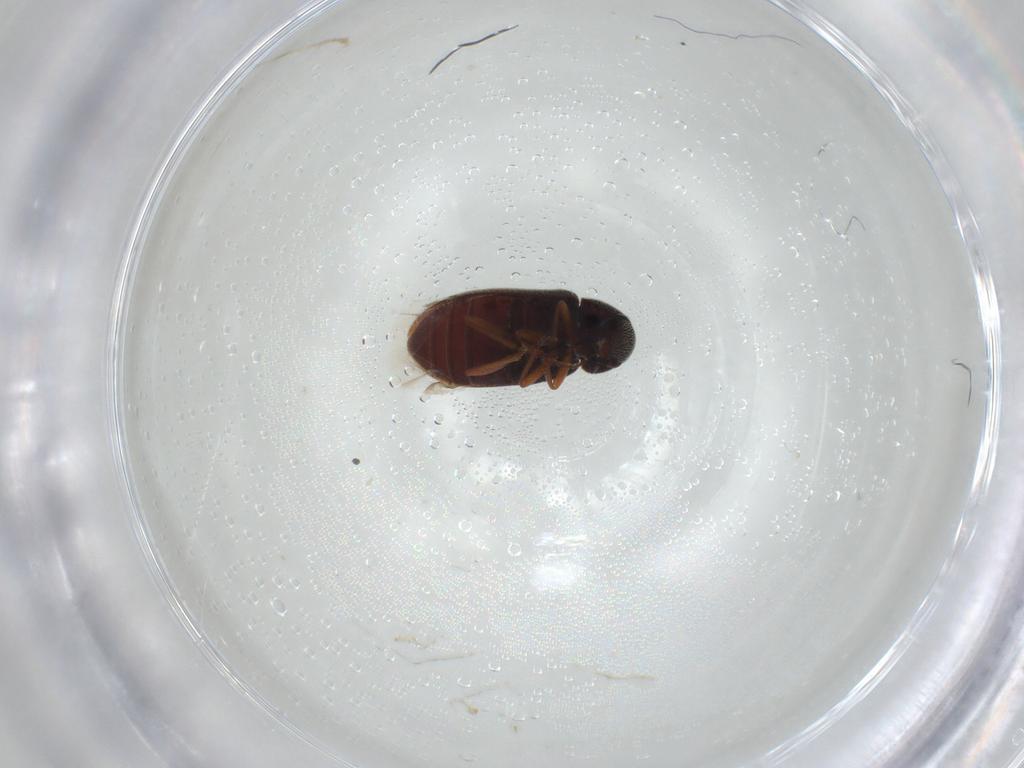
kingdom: Animalia
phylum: Arthropoda
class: Insecta
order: Coleoptera
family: Rhadalidae
